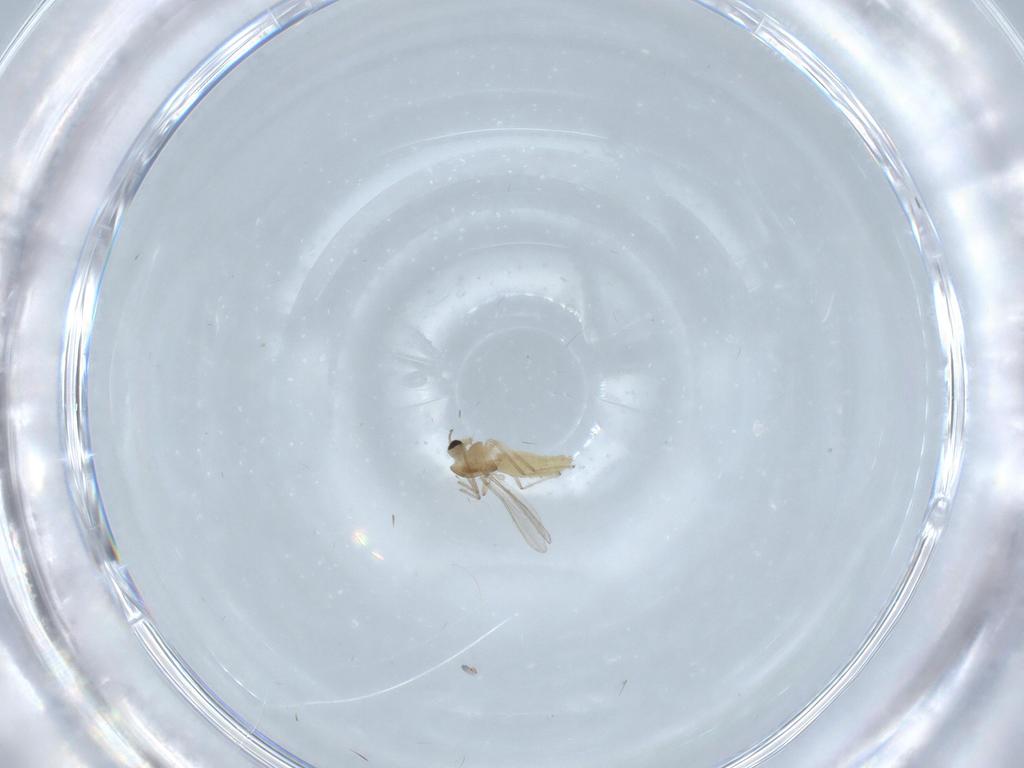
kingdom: Animalia
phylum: Arthropoda
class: Insecta
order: Diptera
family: Chironomidae
